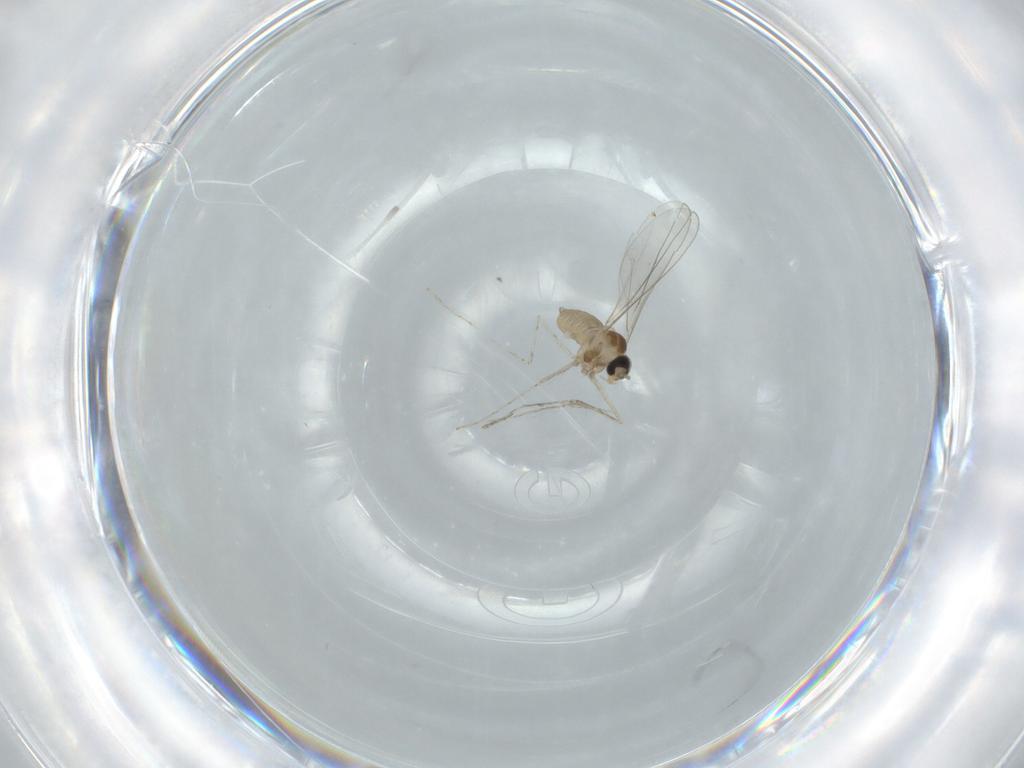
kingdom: Animalia
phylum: Arthropoda
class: Insecta
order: Diptera
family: Cecidomyiidae
